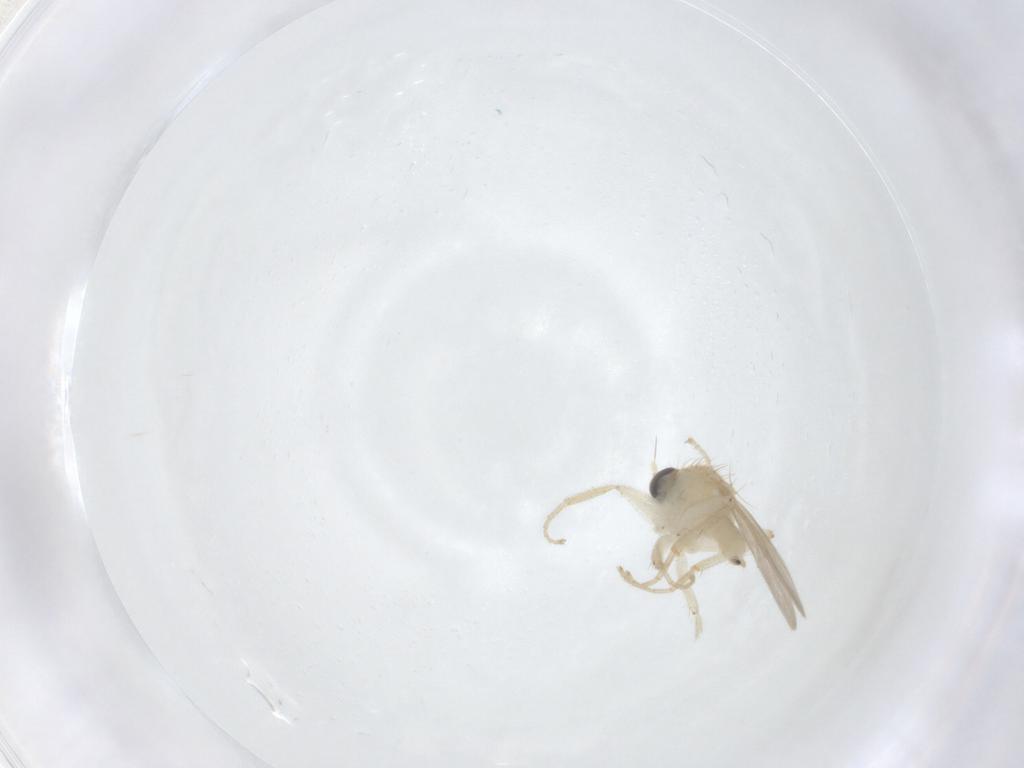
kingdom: Animalia
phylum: Arthropoda
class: Insecta
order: Diptera
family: Hybotidae
